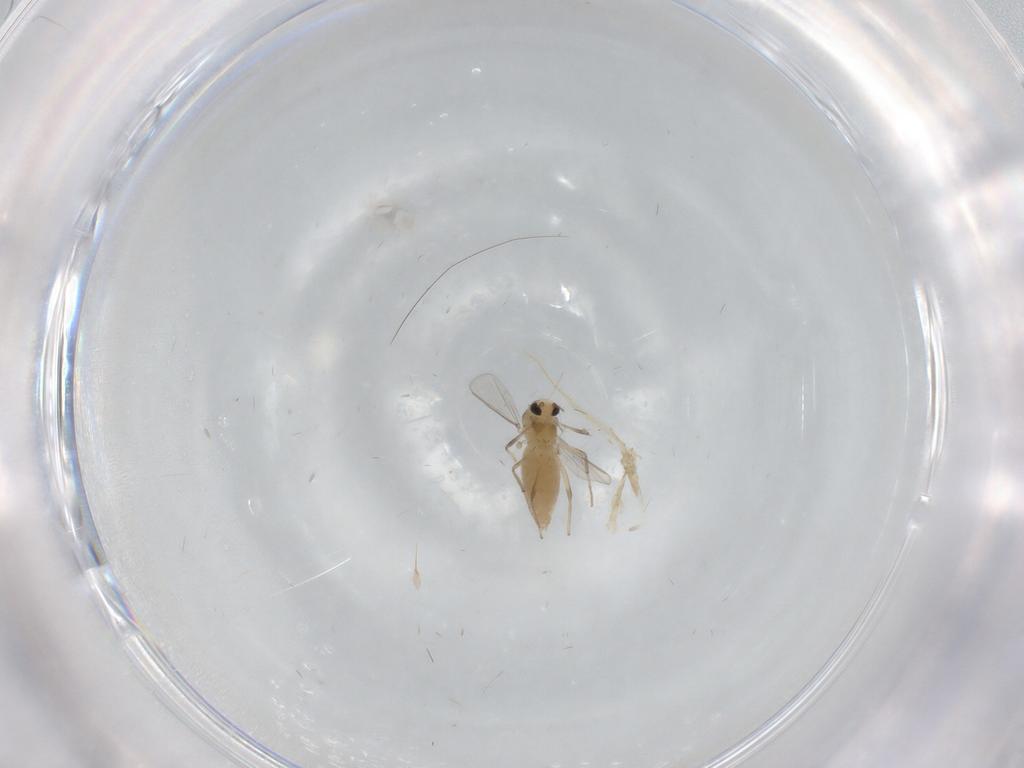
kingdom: Animalia
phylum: Arthropoda
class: Insecta
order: Diptera
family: Chironomidae
